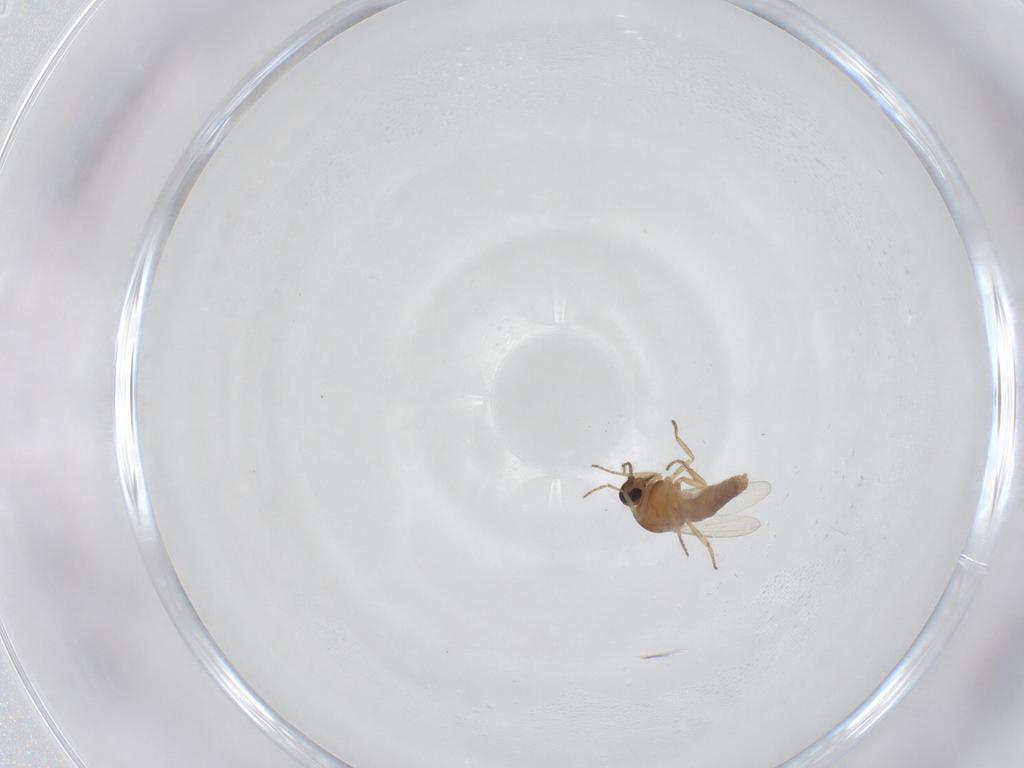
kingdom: Animalia
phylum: Arthropoda
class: Insecta
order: Diptera
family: Ceratopogonidae
